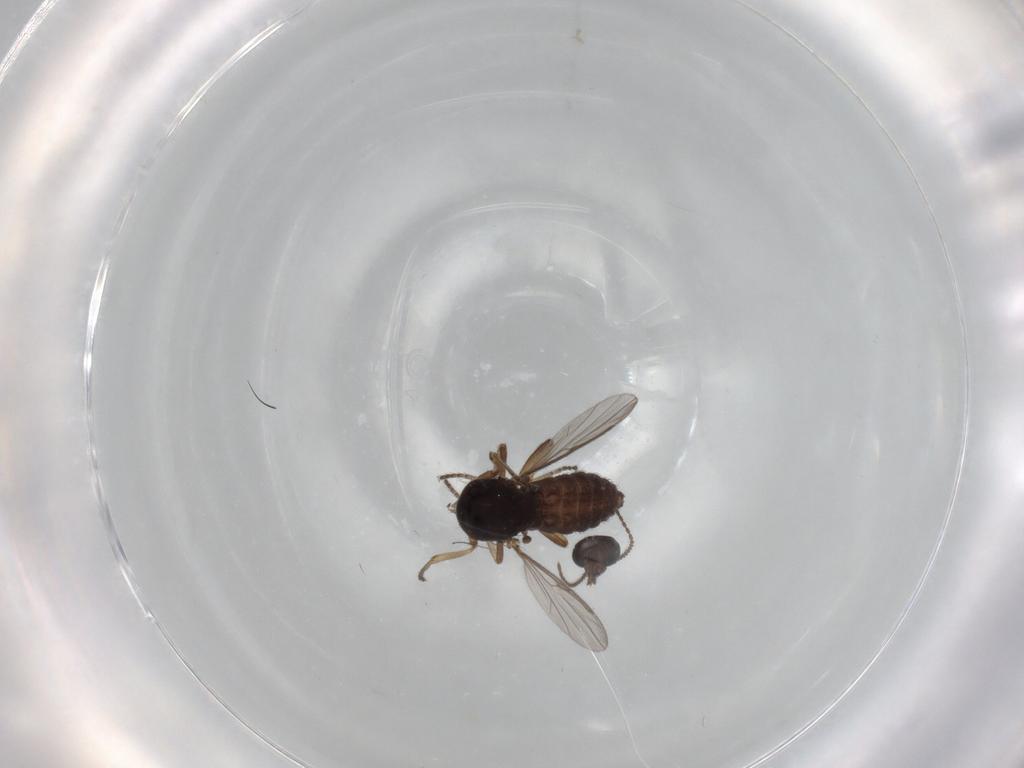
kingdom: Animalia
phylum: Arthropoda
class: Insecta
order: Diptera
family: Ceratopogonidae
